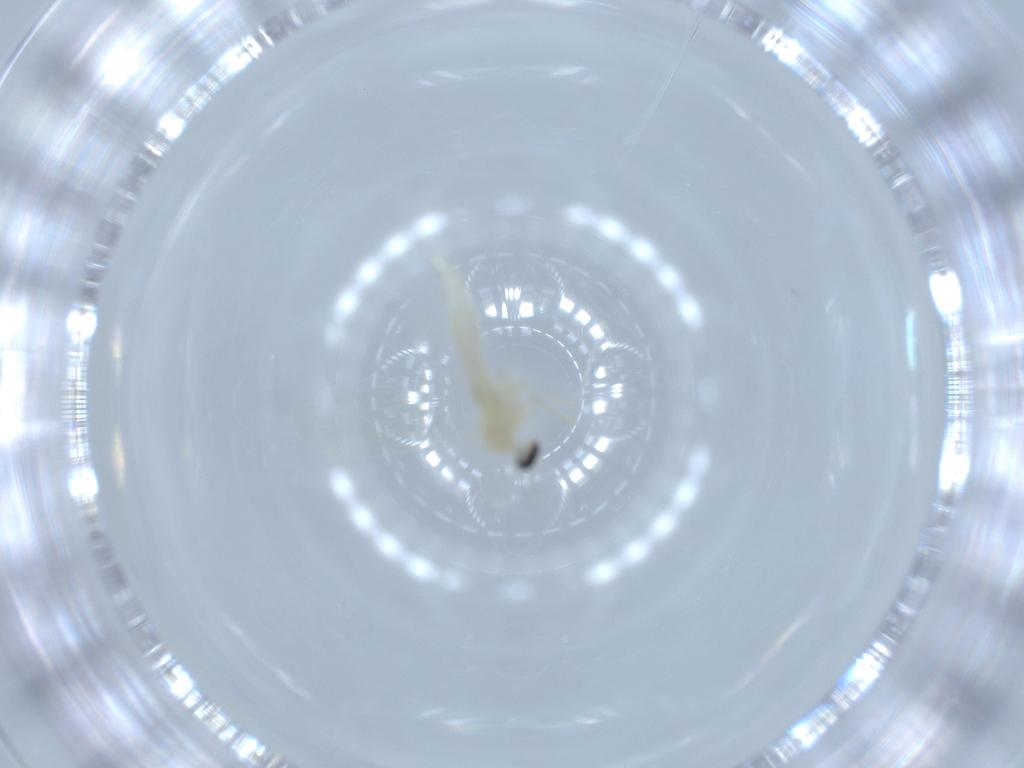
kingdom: Animalia
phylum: Arthropoda
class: Insecta
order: Diptera
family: Cecidomyiidae
